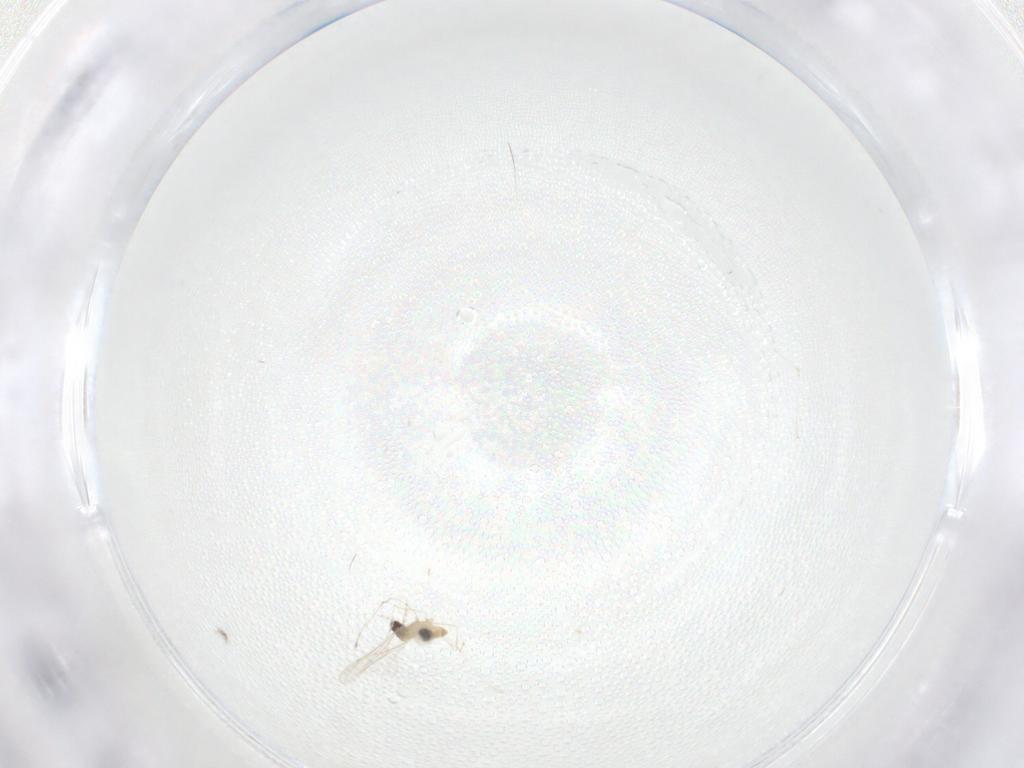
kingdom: Animalia
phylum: Arthropoda
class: Insecta
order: Diptera
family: Cecidomyiidae
